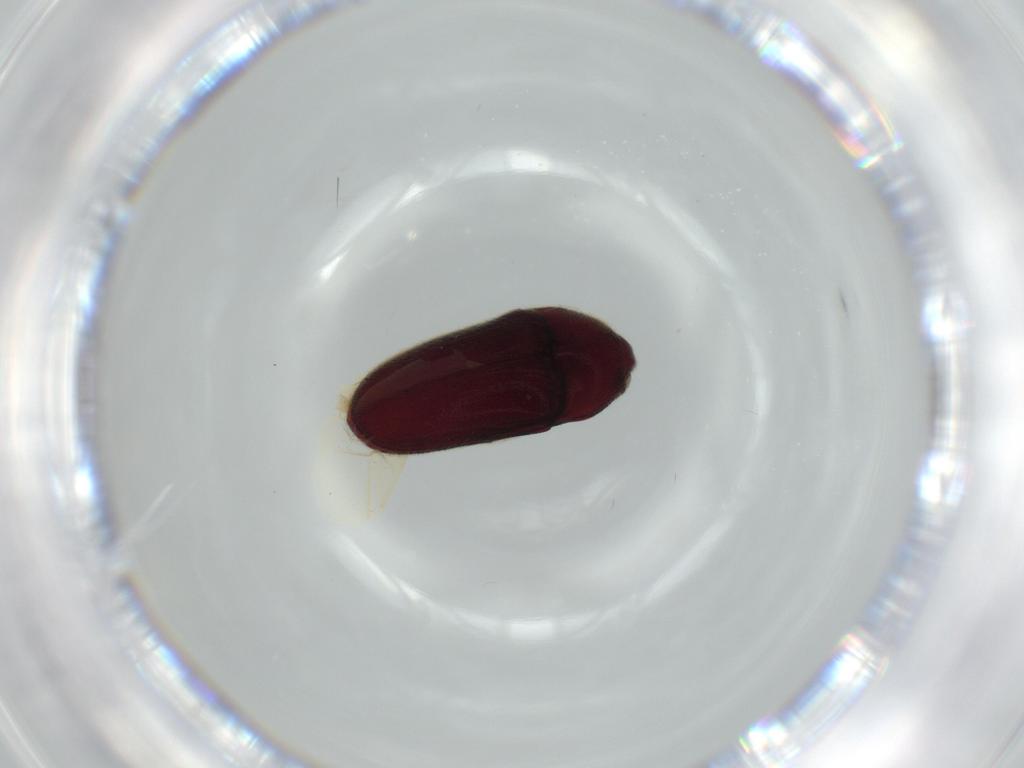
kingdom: Animalia
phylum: Arthropoda
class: Insecta
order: Coleoptera
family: Throscidae
